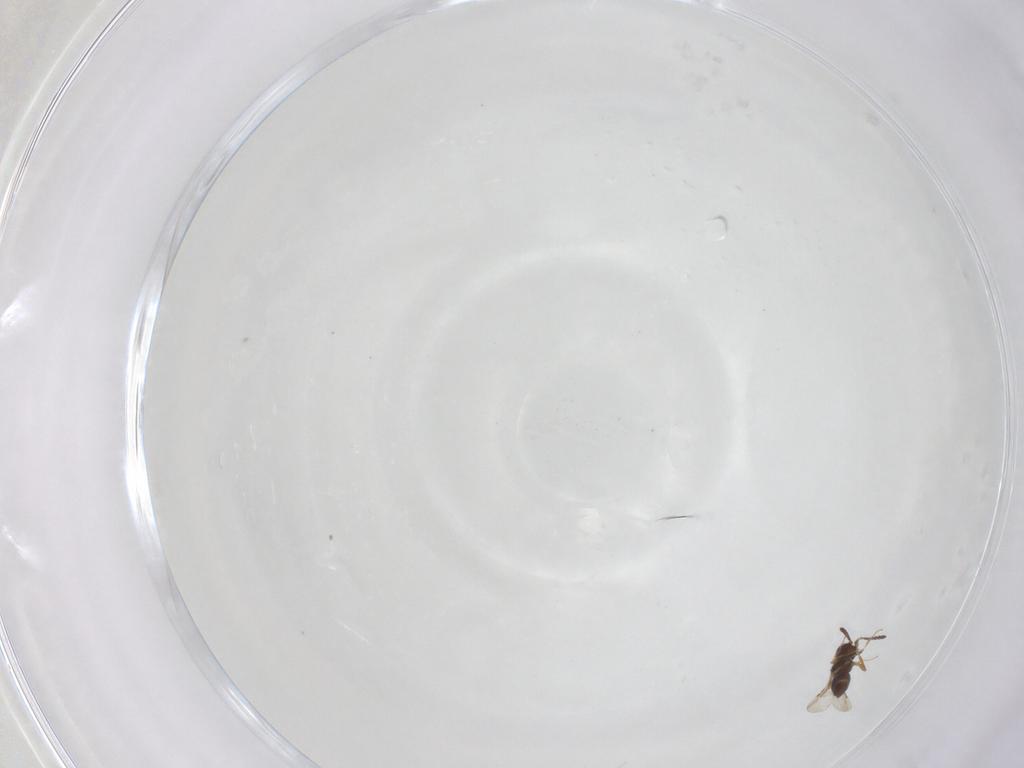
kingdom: Animalia
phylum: Arthropoda
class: Insecta
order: Hymenoptera
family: Ceraphronidae
